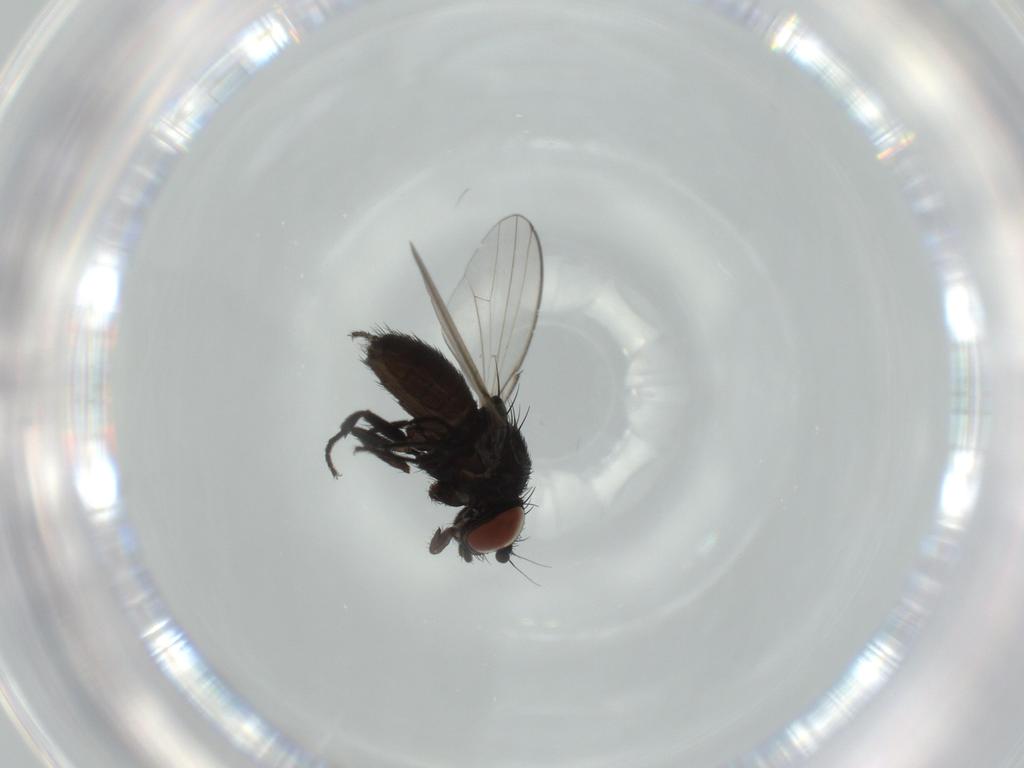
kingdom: Animalia
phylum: Arthropoda
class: Insecta
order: Diptera
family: Milichiidae
